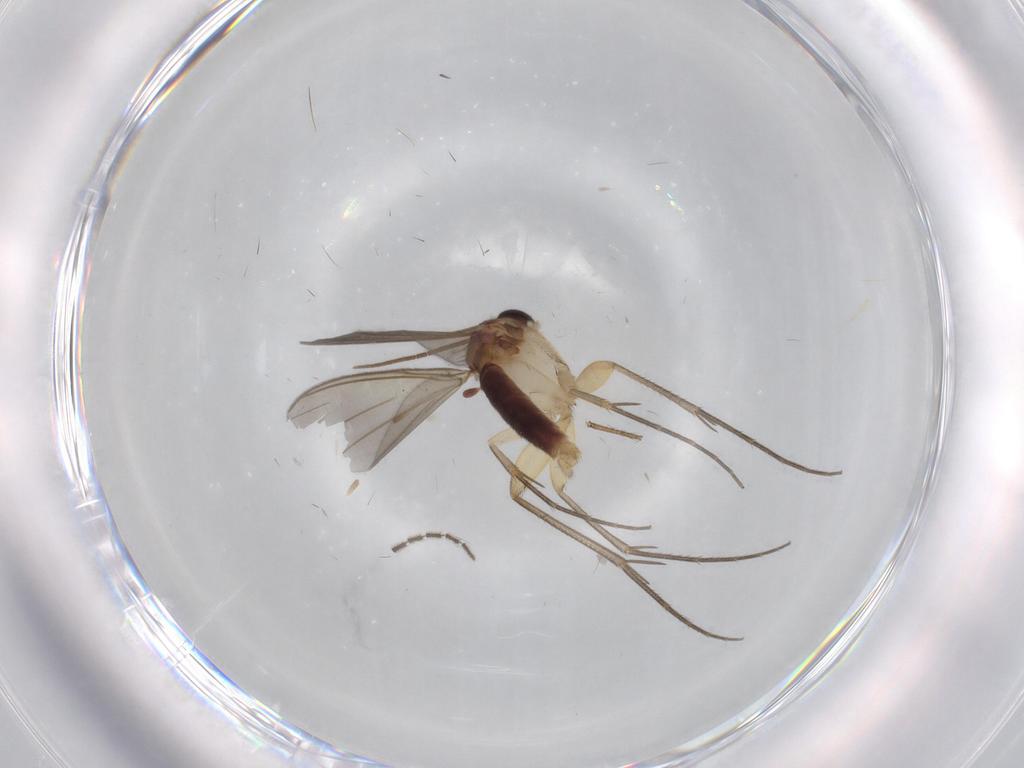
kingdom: Animalia
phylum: Arthropoda
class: Insecta
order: Diptera
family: Mycetophilidae
